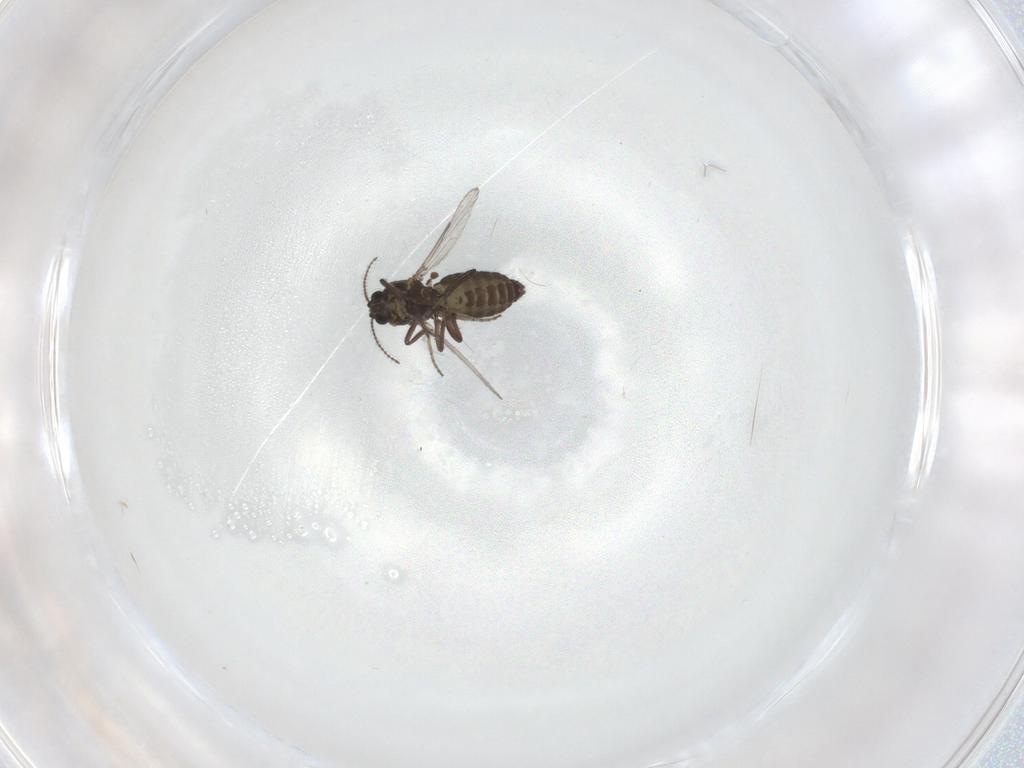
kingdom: Animalia
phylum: Arthropoda
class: Insecta
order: Diptera
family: Ceratopogonidae
